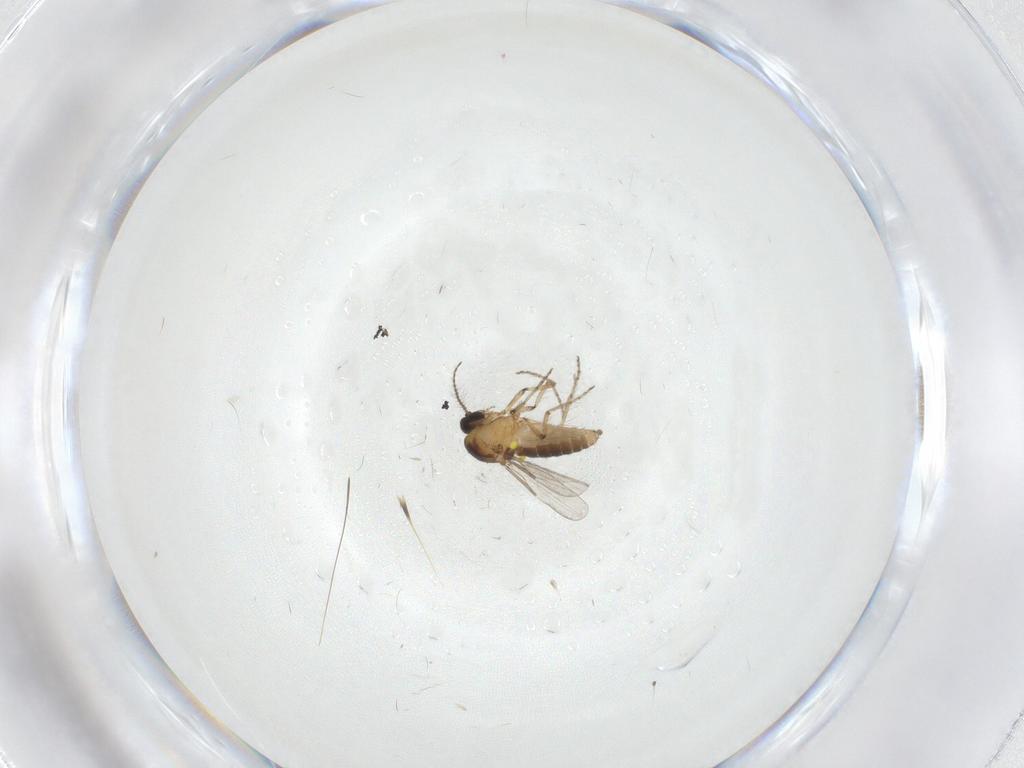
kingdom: Animalia
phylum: Arthropoda
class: Insecta
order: Diptera
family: Ceratopogonidae
